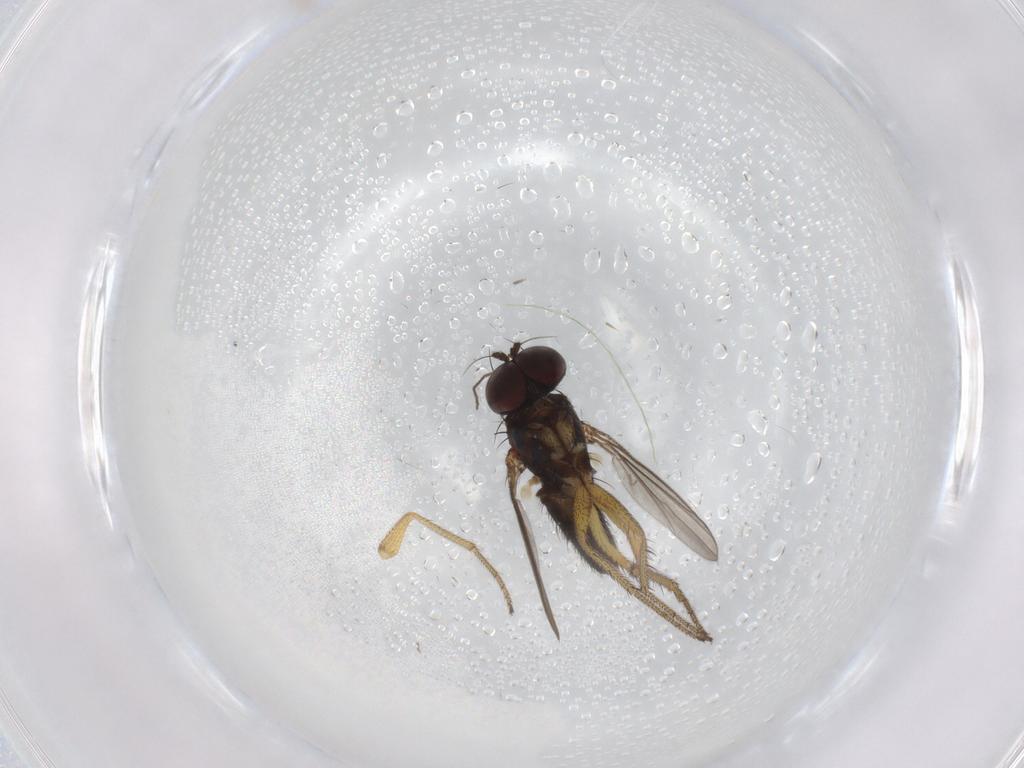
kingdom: Animalia
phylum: Arthropoda
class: Insecta
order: Diptera
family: Chironomidae
